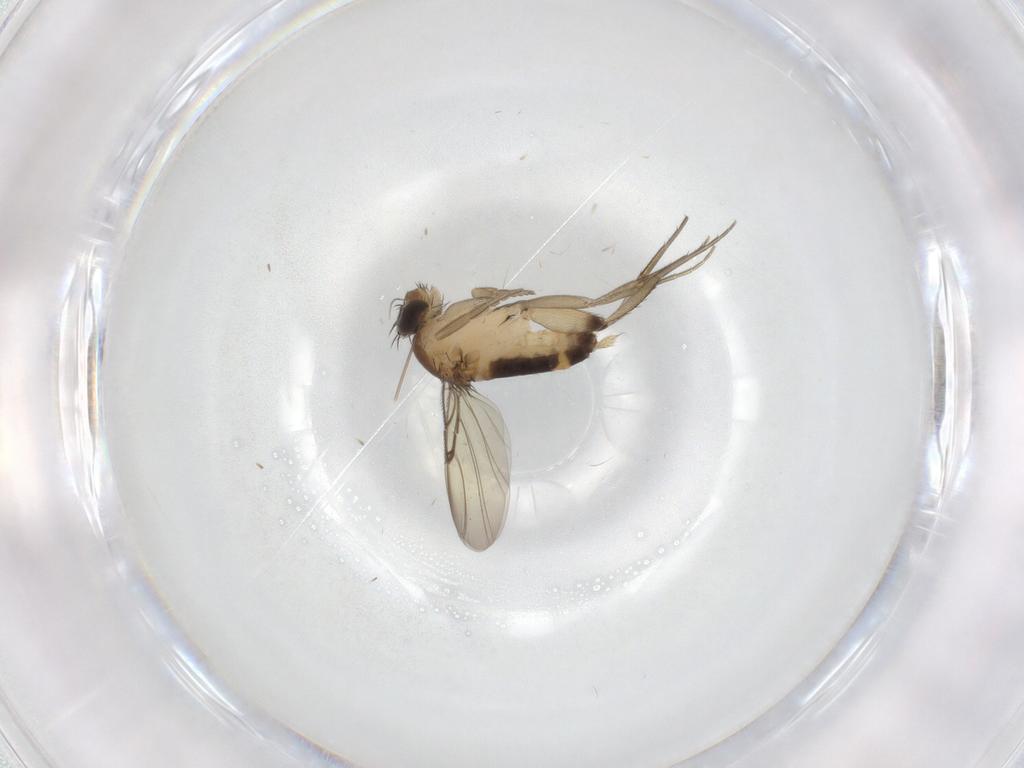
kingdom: Animalia
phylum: Arthropoda
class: Insecta
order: Diptera
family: Phoridae
